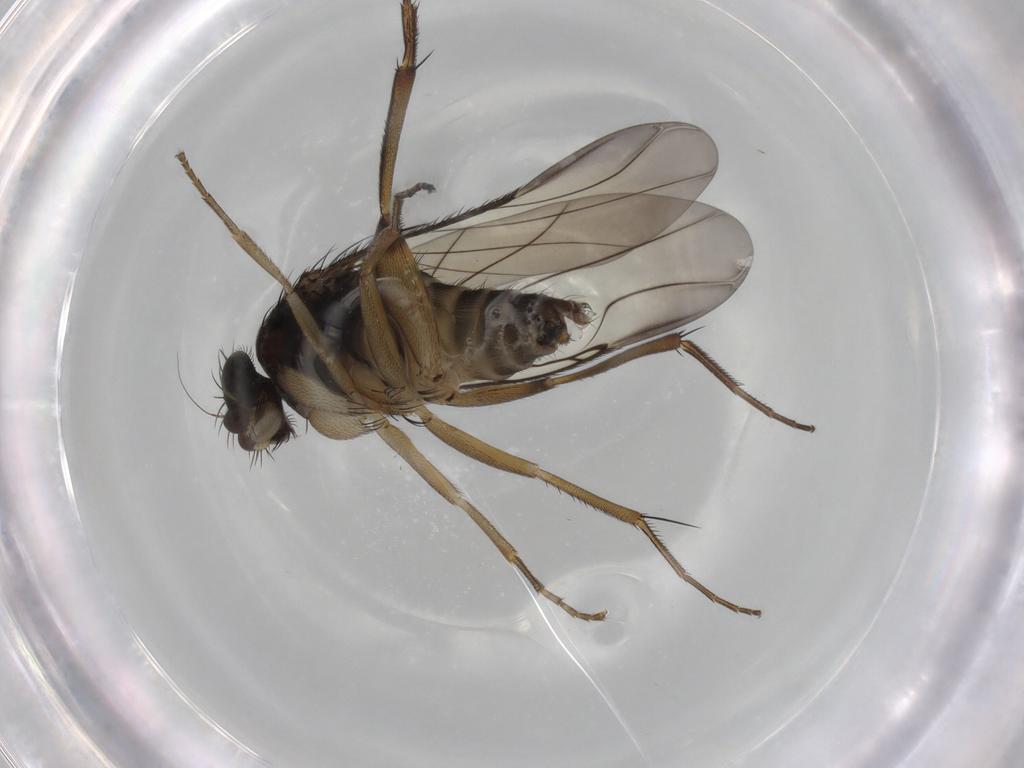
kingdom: Animalia
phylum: Arthropoda
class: Insecta
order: Diptera
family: Phoridae
